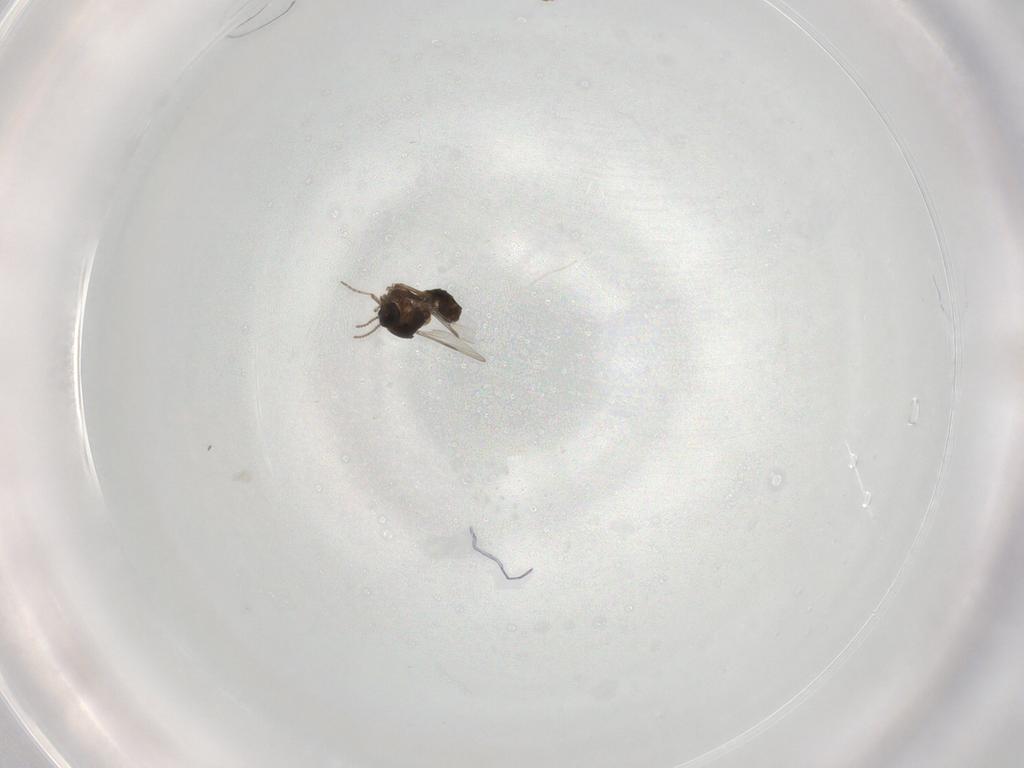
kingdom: Animalia
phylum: Arthropoda
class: Insecta
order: Diptera
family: Ceratopogonidae
